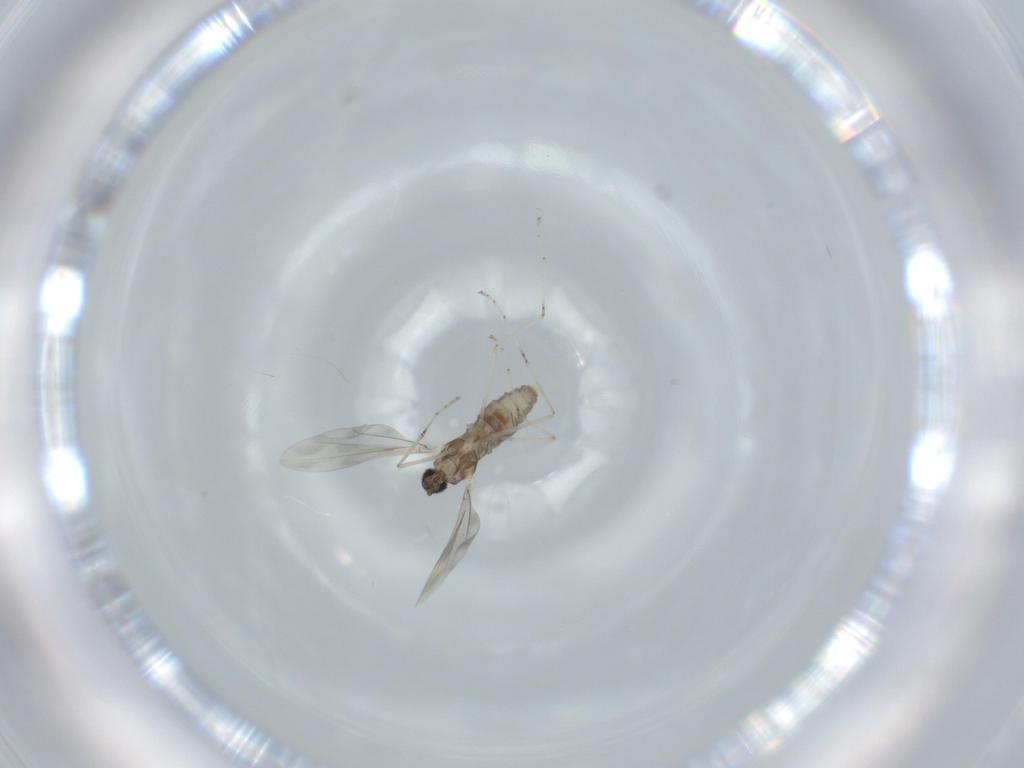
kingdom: Animalia
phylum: Arthropoda
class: Insecta
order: Diptera
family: Cecidomyiidae
